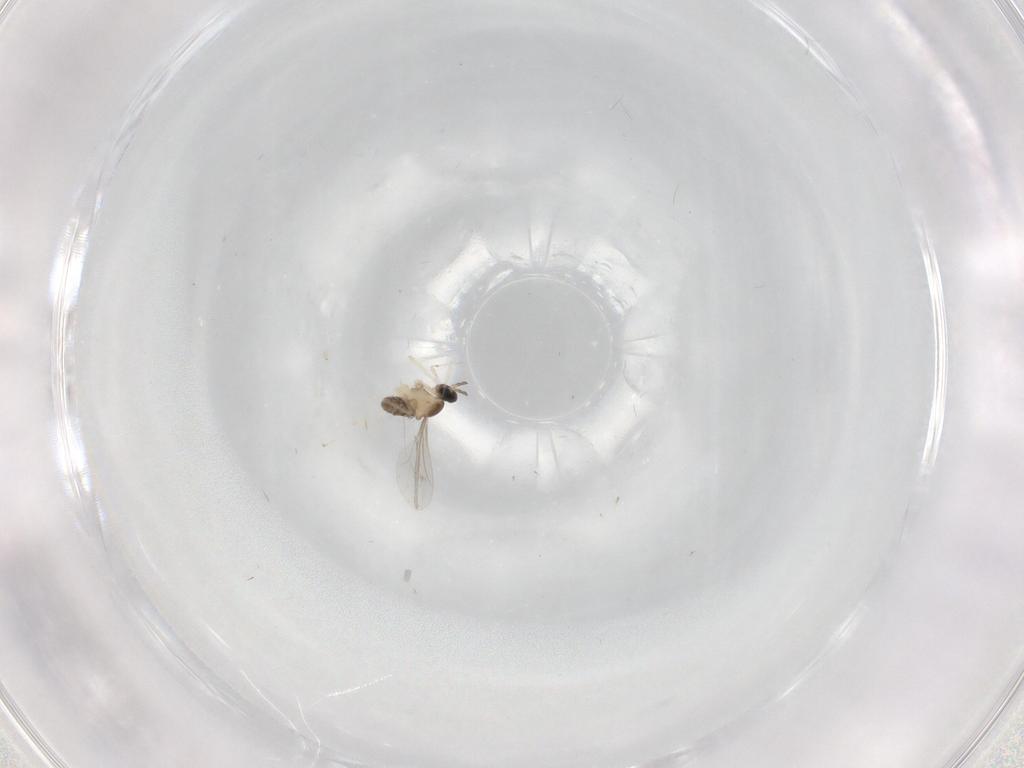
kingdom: Animalia
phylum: Arthropoda
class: Insecta
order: Diptera
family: Cecidomyiidae
